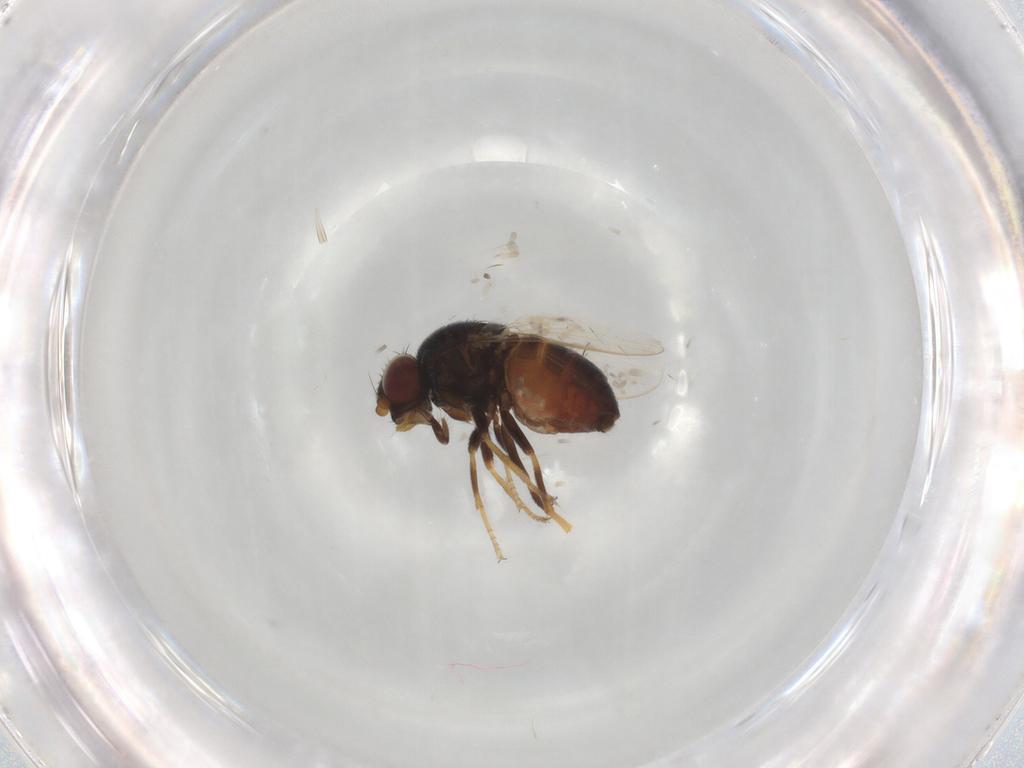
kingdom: Animalia
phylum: Arthropoda
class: Insecta
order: Diptera
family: Chloropidae
